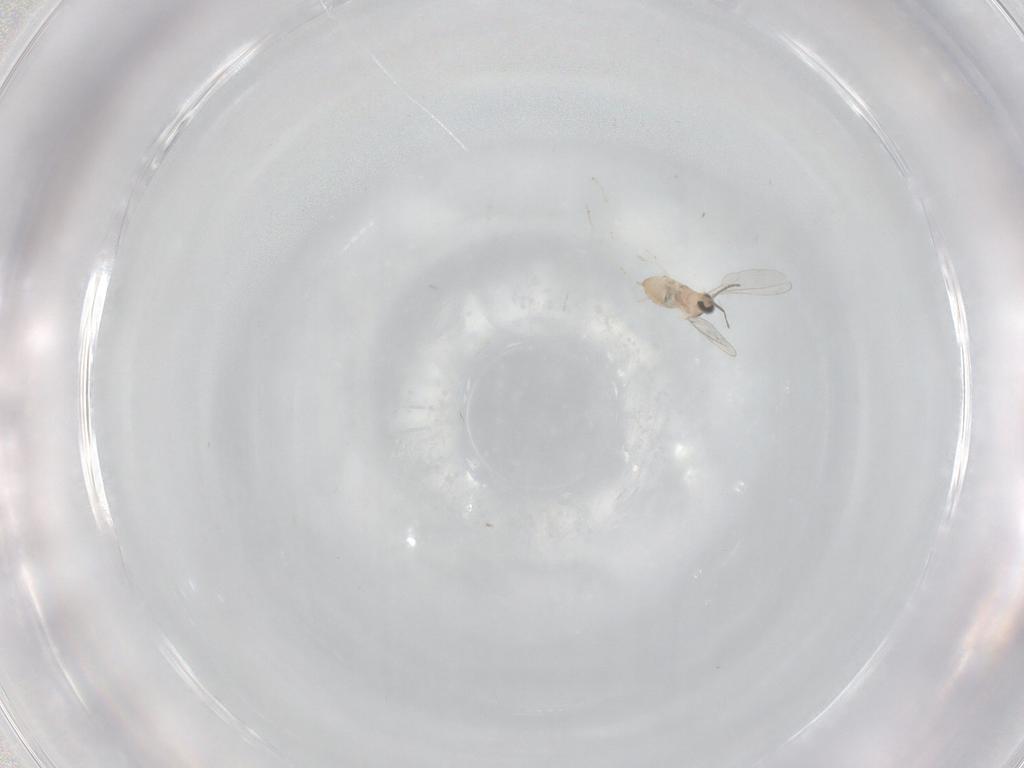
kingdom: Animalia
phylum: Arthropoda
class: Insecta
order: Diptera
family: Cecidomyiidae
